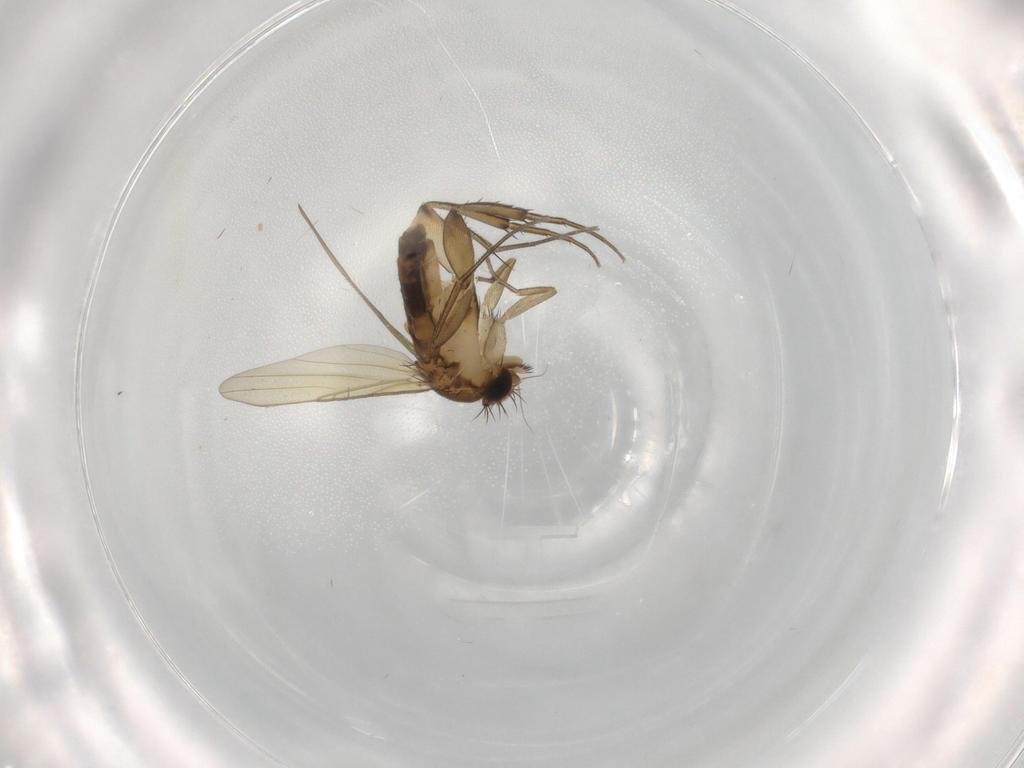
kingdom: Animalia
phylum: Arthropoda
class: Insecta
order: Diptera
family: Phoridae
